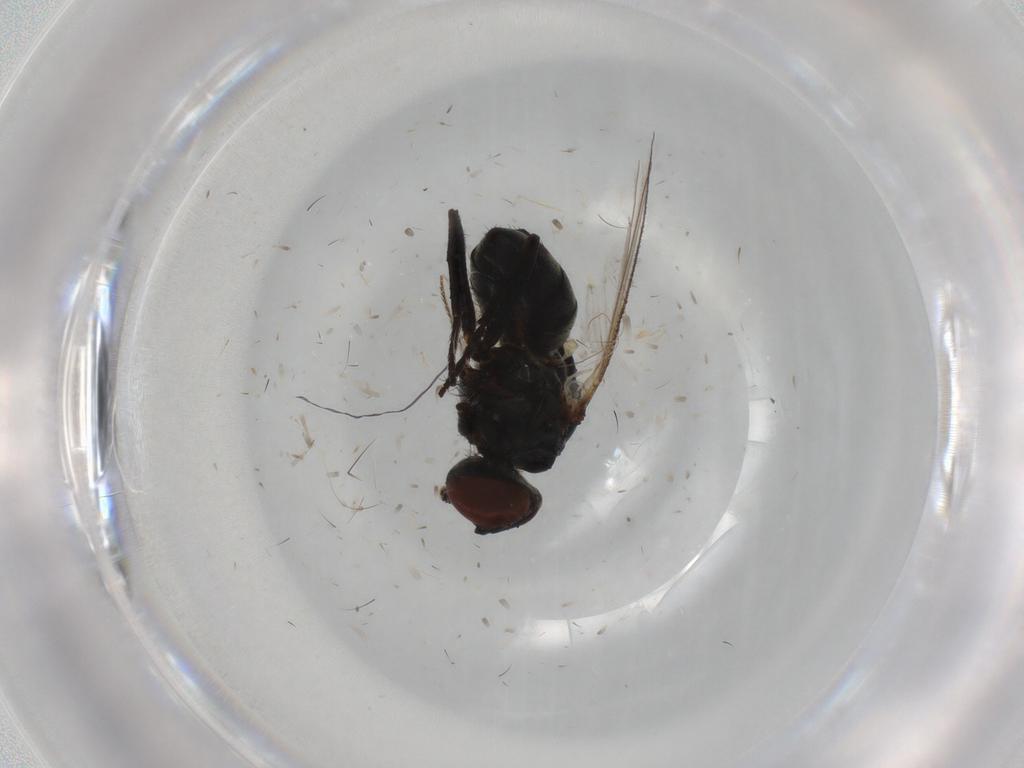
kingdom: Animalia
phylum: Arthropoda
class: Insecta
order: Diptera
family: Muscidae
